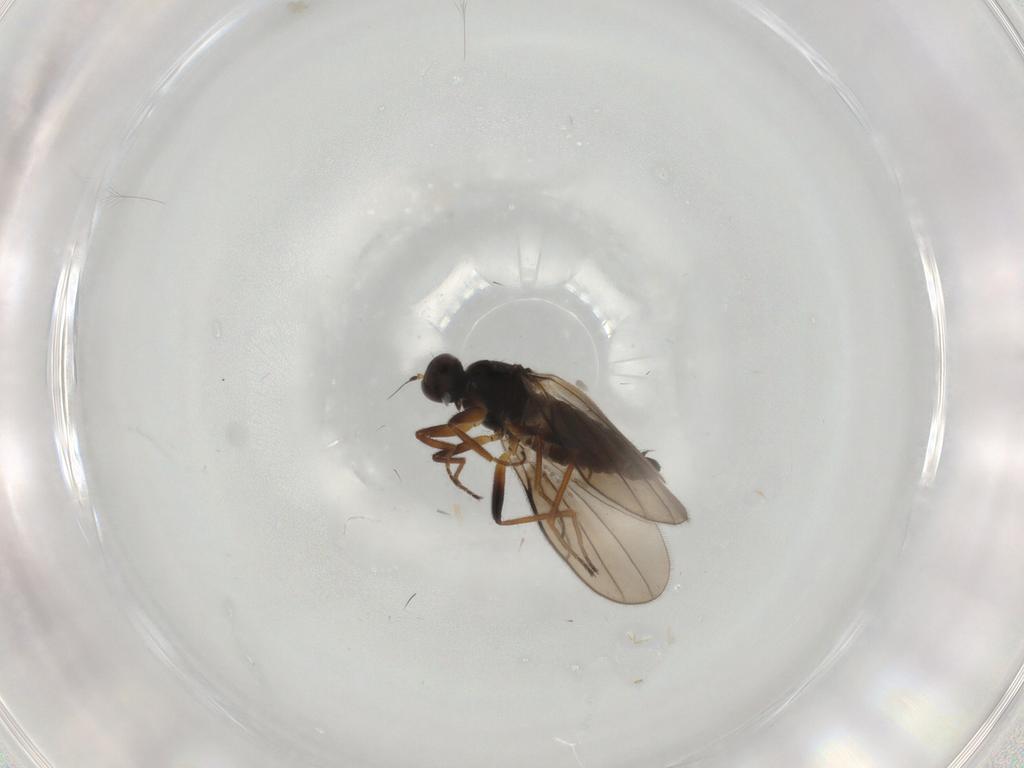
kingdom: Animalia
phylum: Arthropoda
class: Insecta
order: Diptera
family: Hybotidae
